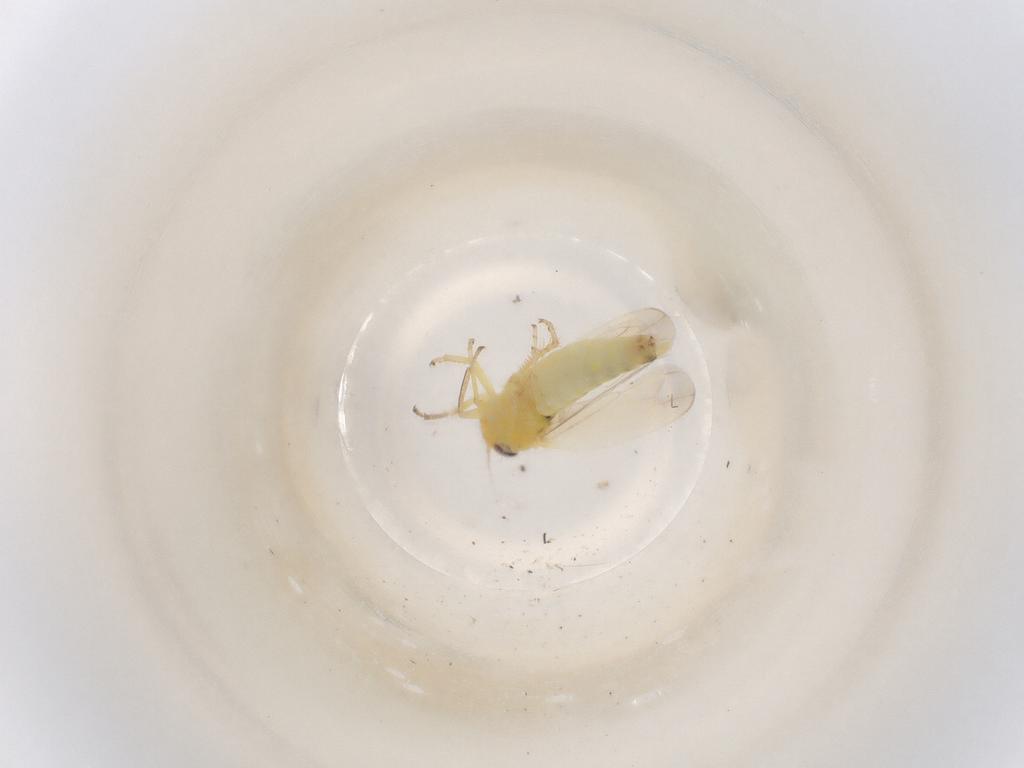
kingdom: Animalia
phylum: Arthropoda
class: Insecta
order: Hemiptera
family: Cicadellidae
